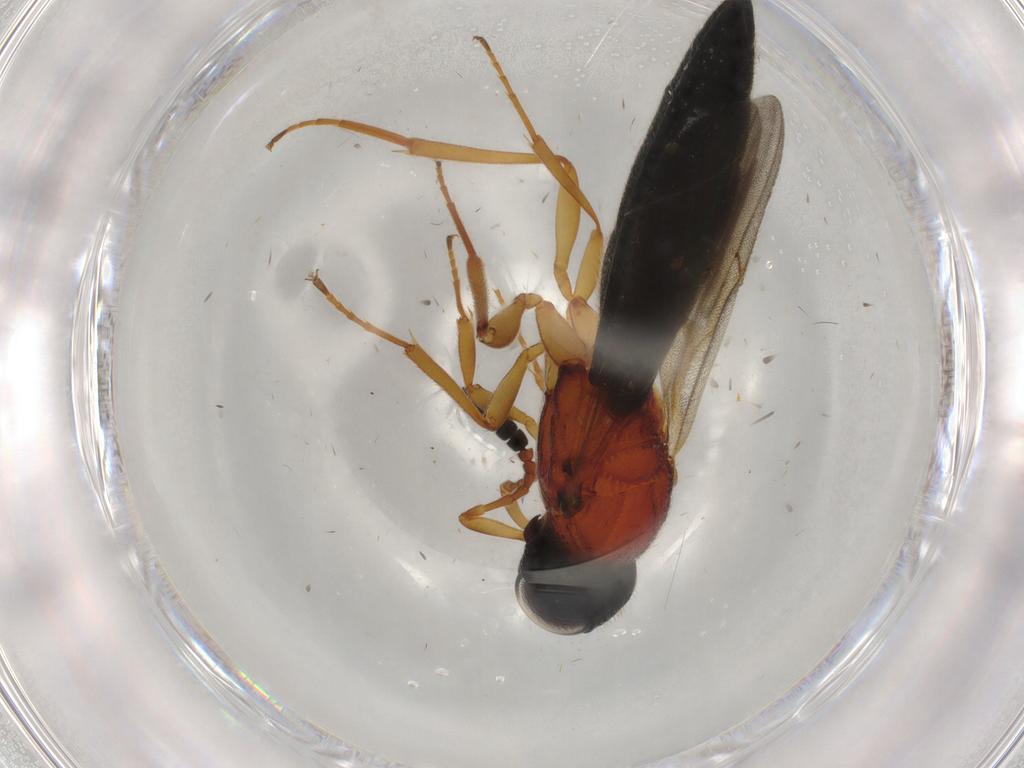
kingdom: Animalia
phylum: Arthropoda
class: Insecta
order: Hymenoptera
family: Scelionidae
